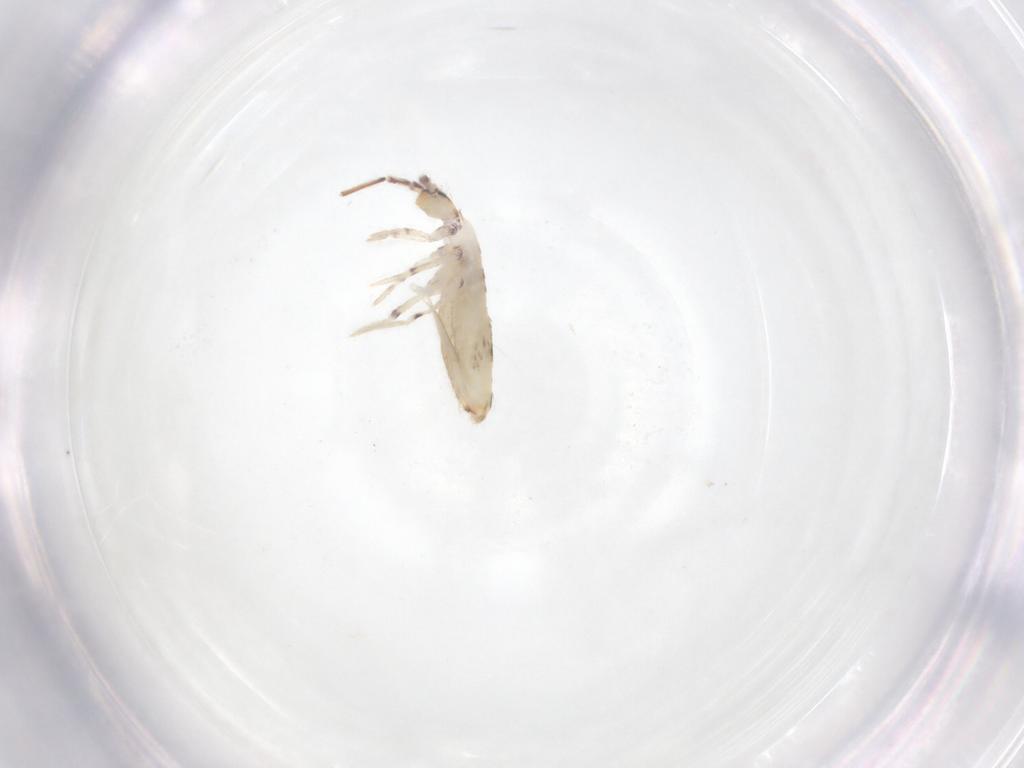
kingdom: Animalia
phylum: Arthropoda
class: Collembola
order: Entomobryomorpha
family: Entomobryidae
